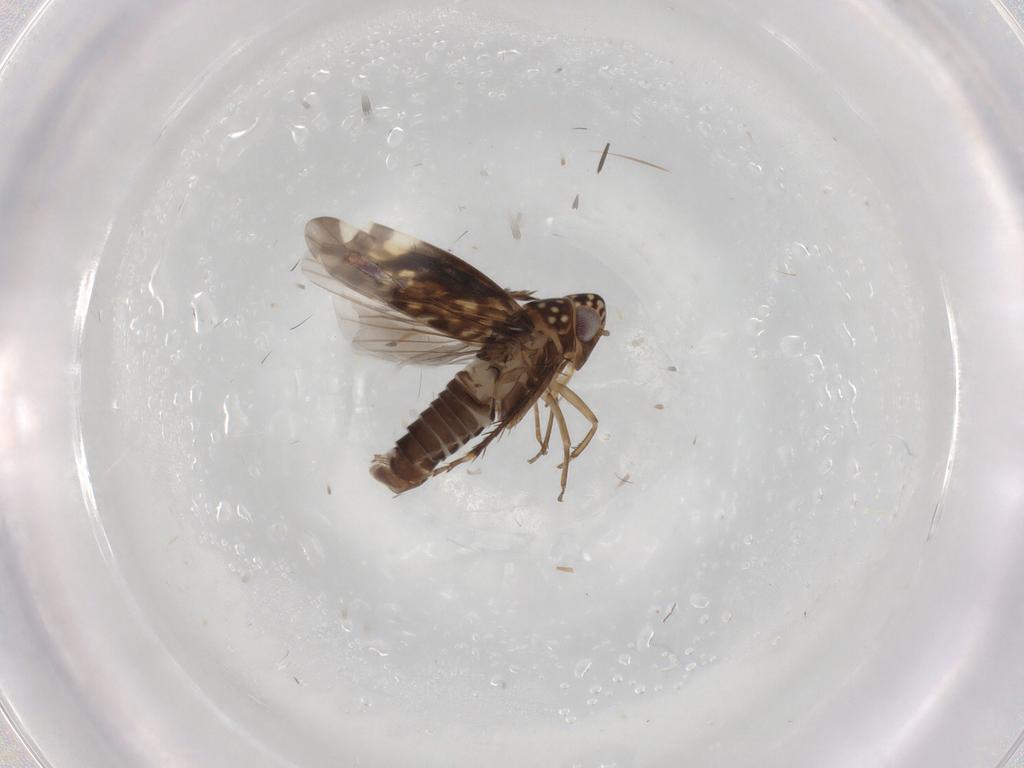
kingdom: Animalia
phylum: Arthropoda
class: Insecta
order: Hemiptera
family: Cicadellidae
